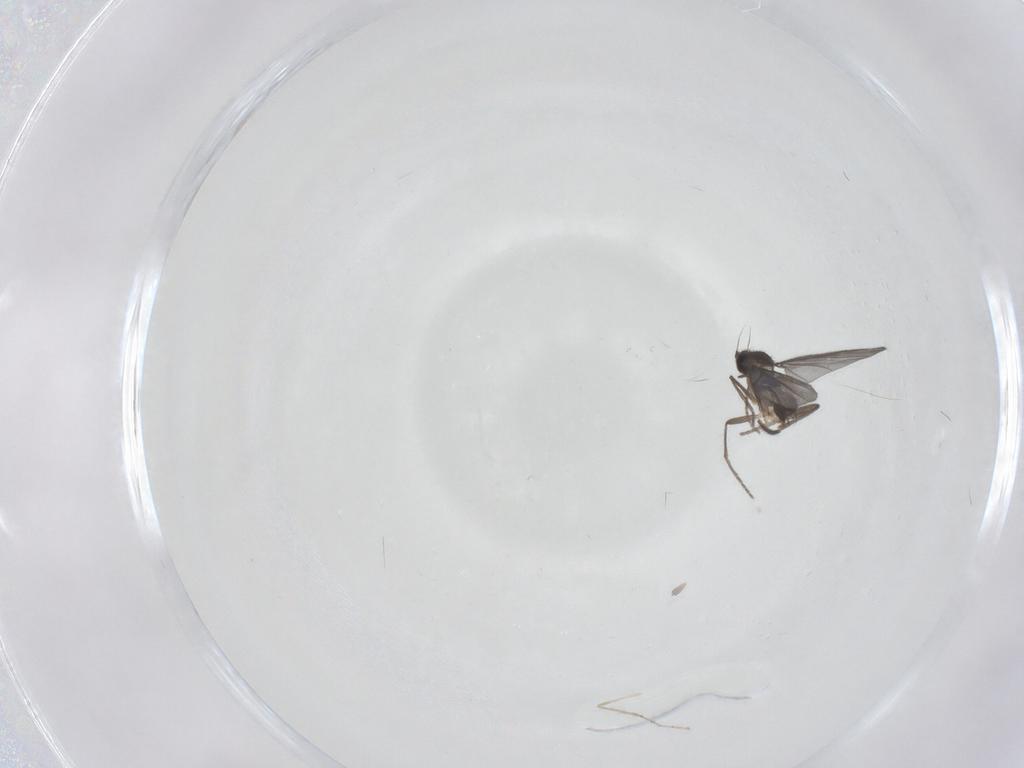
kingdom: Animalia
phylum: Arthropoda
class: Insecta
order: Diptera
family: Phoridae
